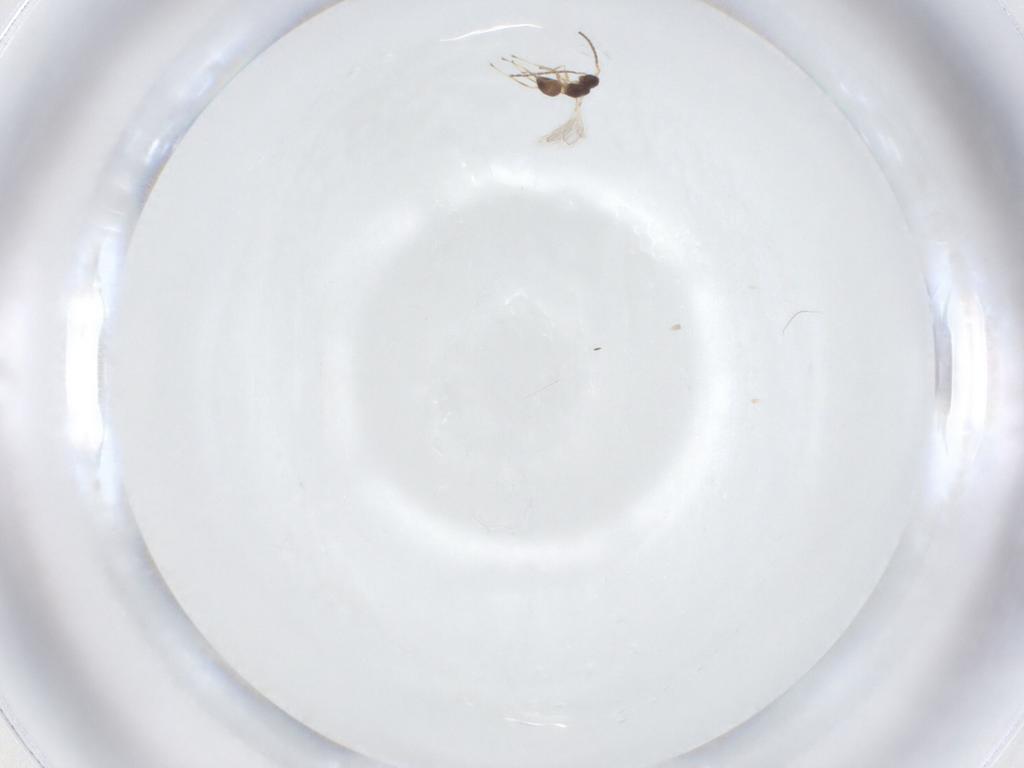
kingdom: Animalia
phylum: Arthropoda
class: Insecta
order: Hymenoptera
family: Mymaridae
